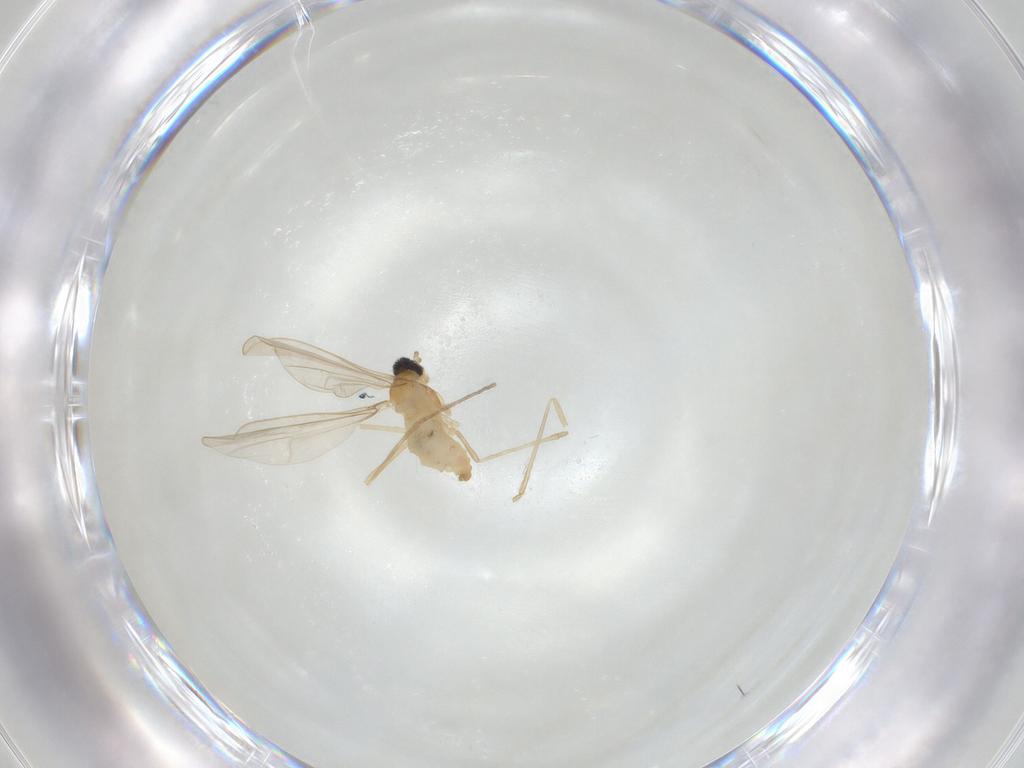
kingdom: Animalia
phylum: Arthropoda
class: Insecta
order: Diptera
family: Cecidomyiidae
